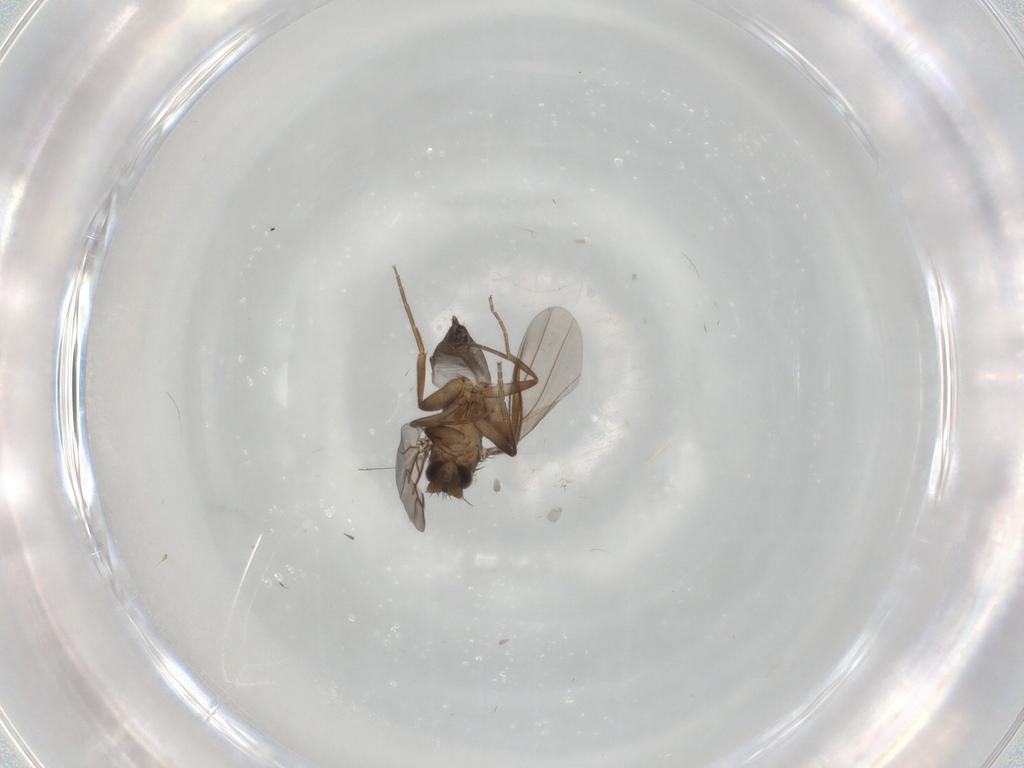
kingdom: Animalia
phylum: Arthropoda
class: Insecta
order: Diptera
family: Phoridae
